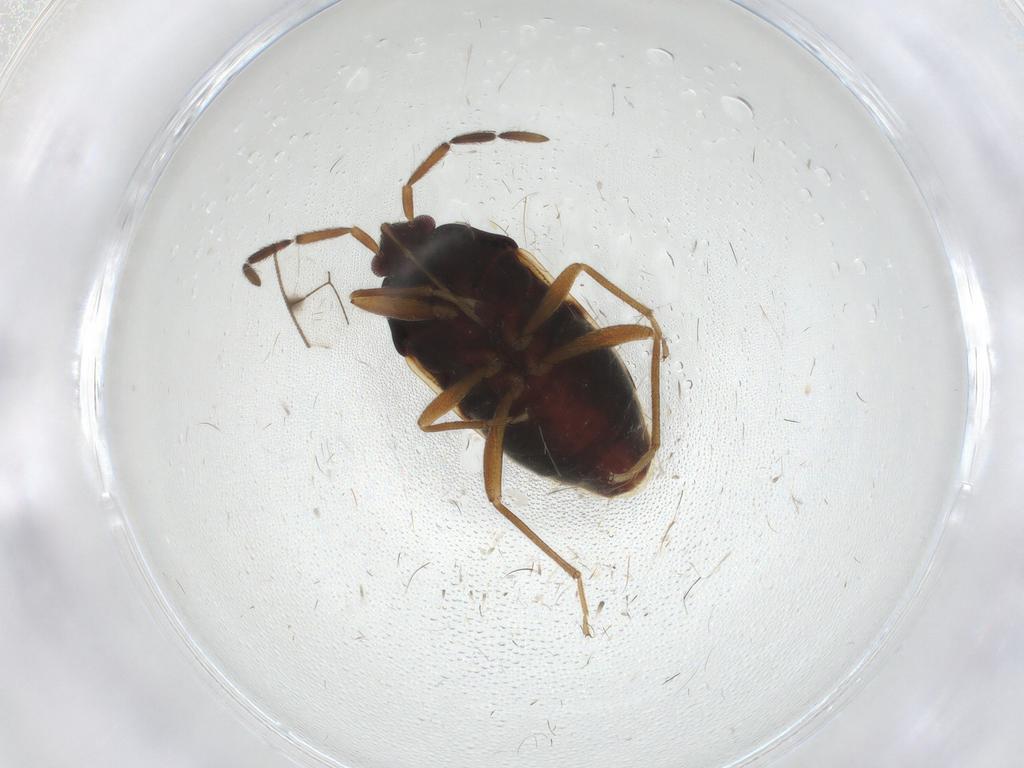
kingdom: Animalia
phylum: Arthropoda
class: Insecta
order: Hemiptera
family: Rhyparochromidae
